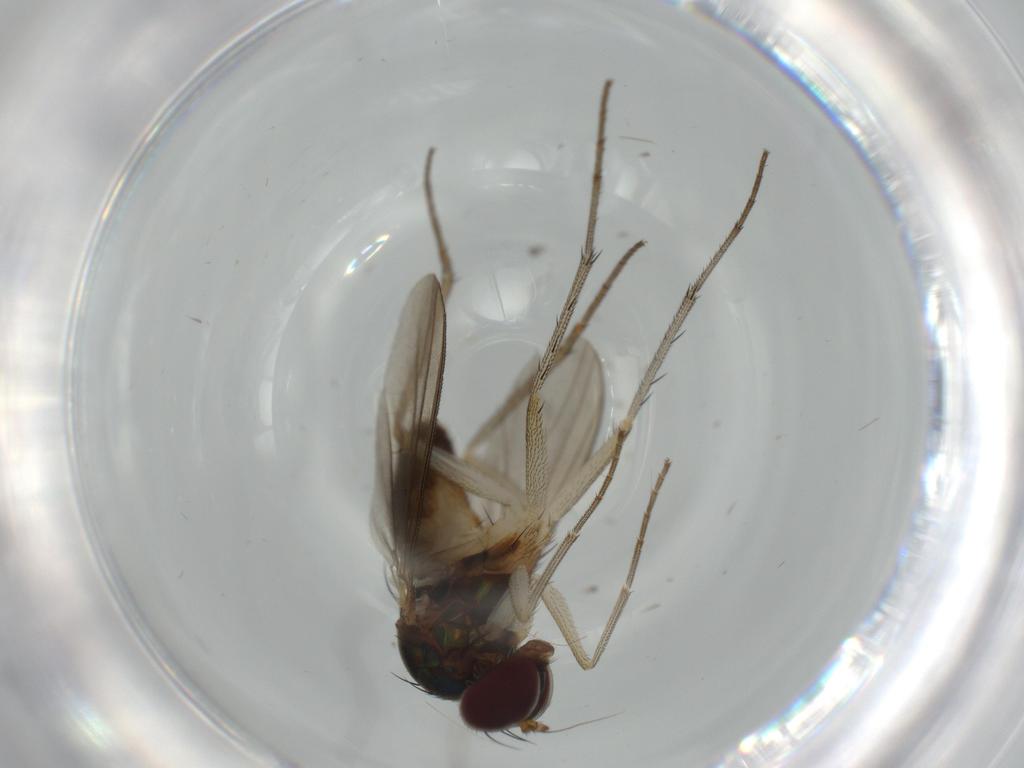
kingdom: Animalia
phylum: Arthropoda
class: Insecta
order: Diptera
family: Dolichopodidae
